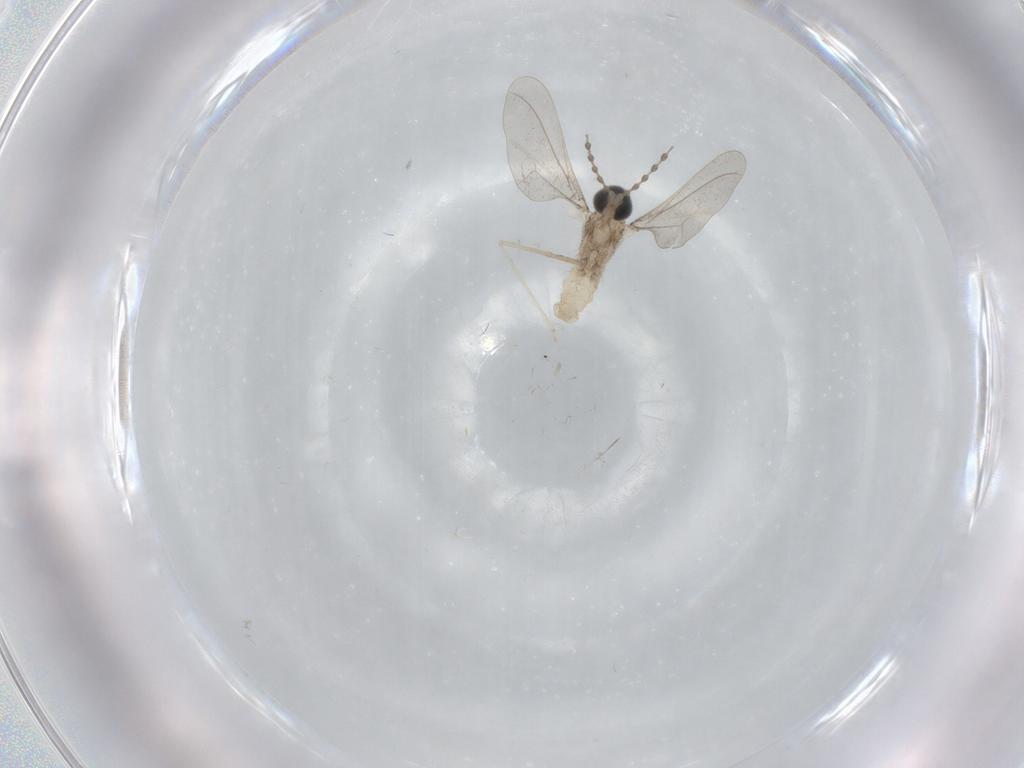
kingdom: Animalia
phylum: Arthropoda
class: Insecta
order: Diptera
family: Cecidomyiidae
